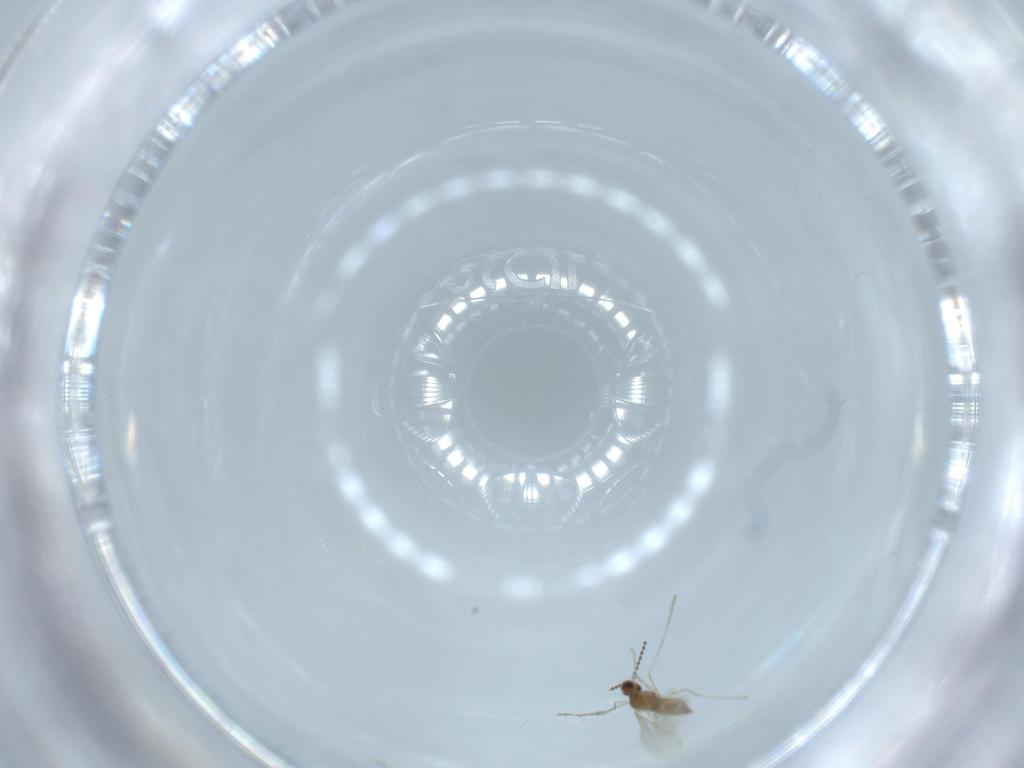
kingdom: Animalia
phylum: Arthropoda
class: Insecta
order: Diptera
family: Cecidomyiidae
